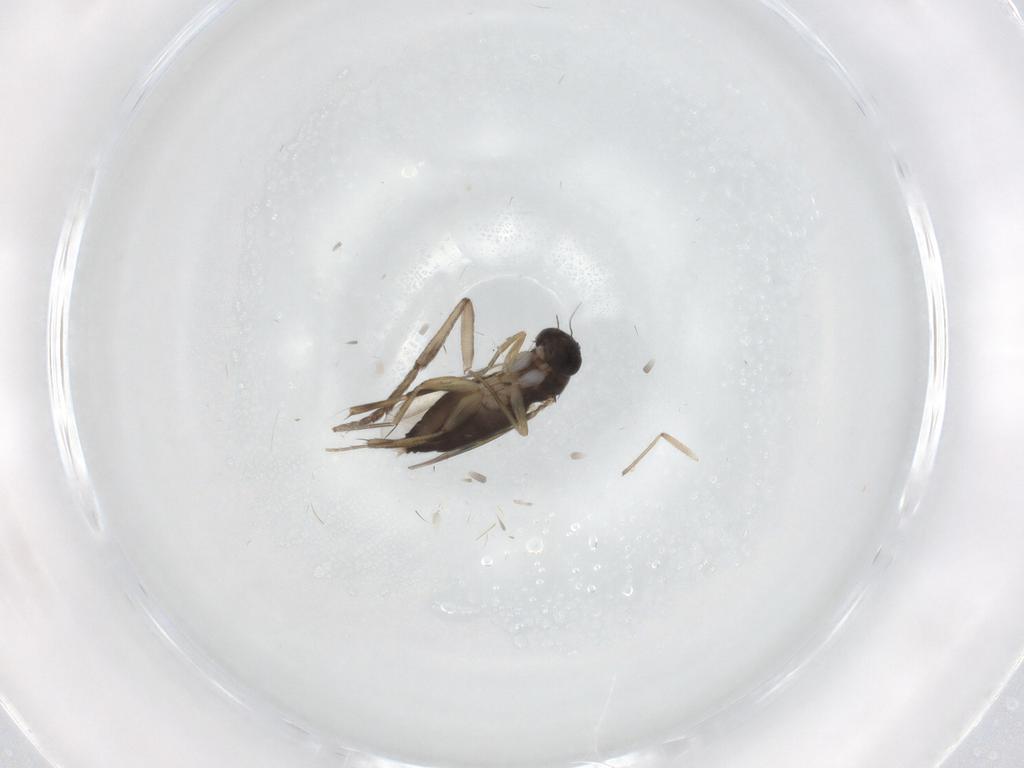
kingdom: Animalia
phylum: Arthropoda
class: Insecta
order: Diptera
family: Phoridae
